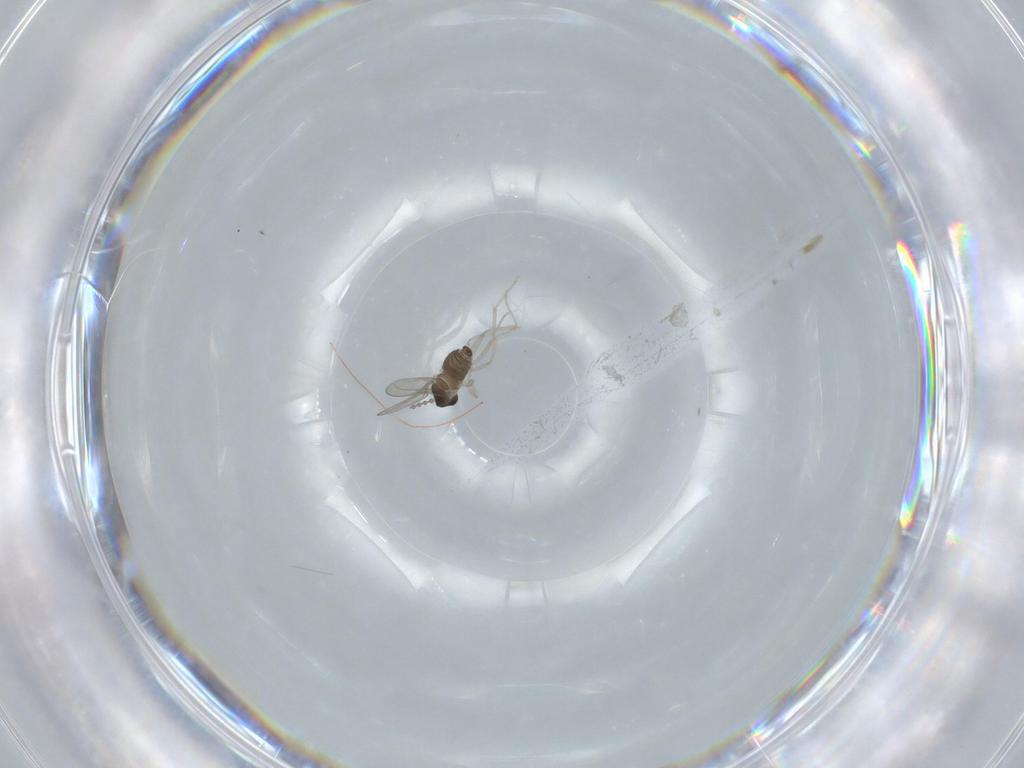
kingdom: Animalia
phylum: Arthropoda
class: Insecta
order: Diptera
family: Cecidomyiidae
